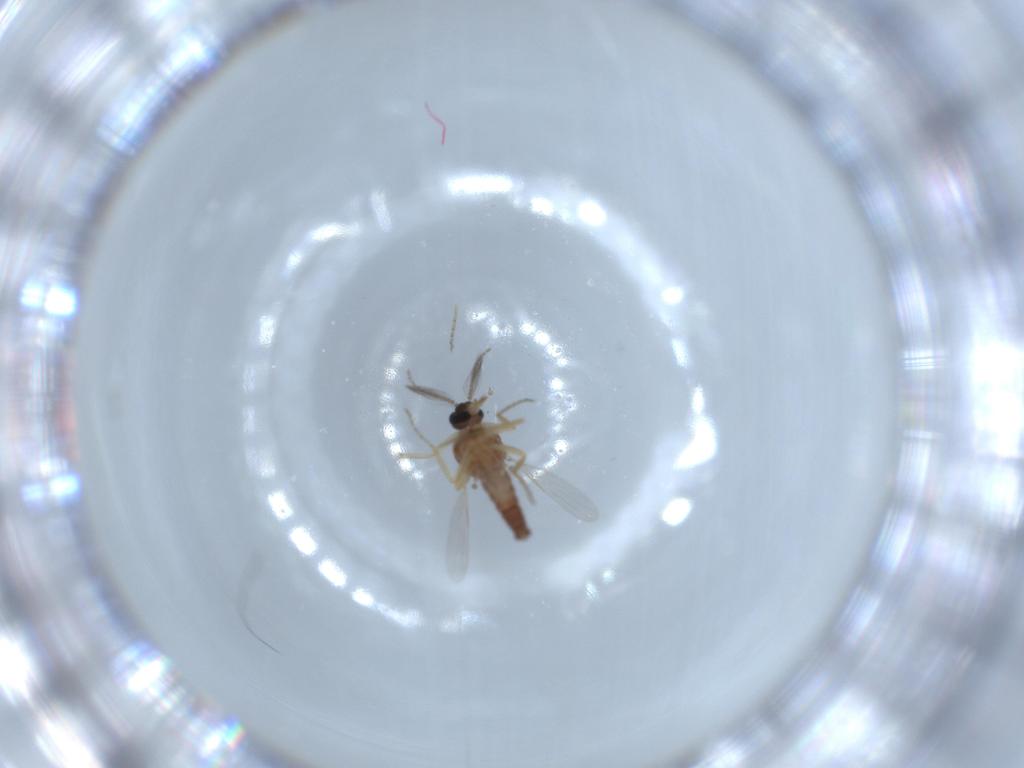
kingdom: Animalia
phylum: Arthropoda
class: Insecta
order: Diptera
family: Ceratopogonidae
